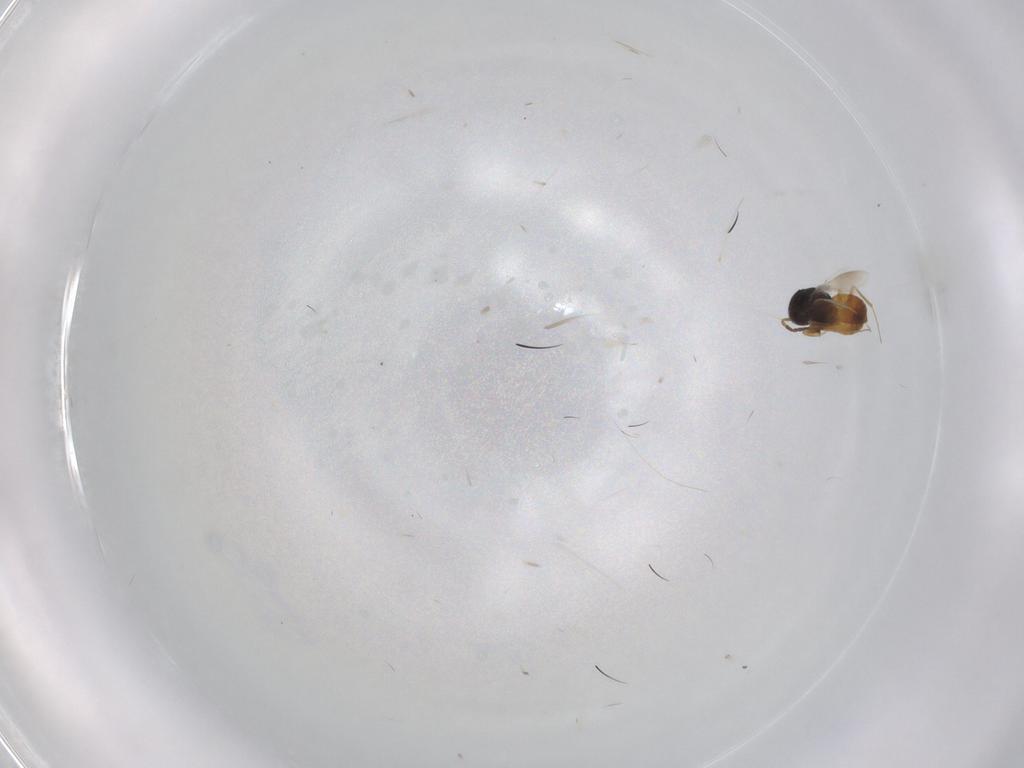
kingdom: Animalia
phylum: Arthropoda
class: Insecta
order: Hymenoptera
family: Scelionidae
